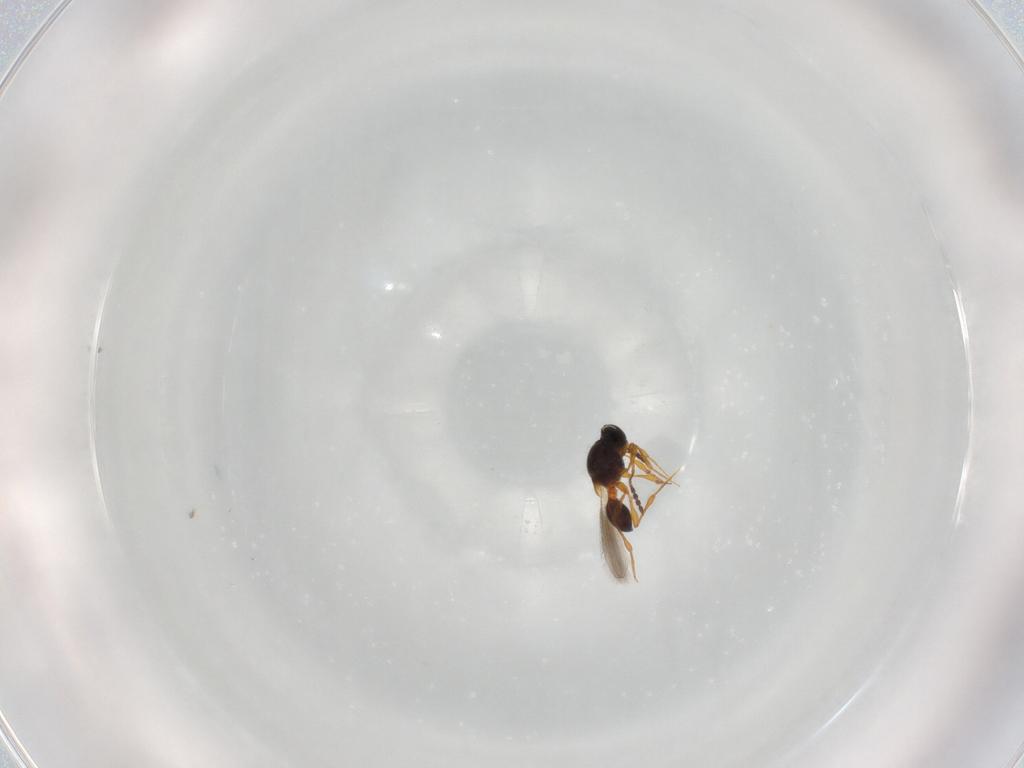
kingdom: Animalia
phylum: Arthropoda
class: Insecta
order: Hymenoptera
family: Platygastridae
